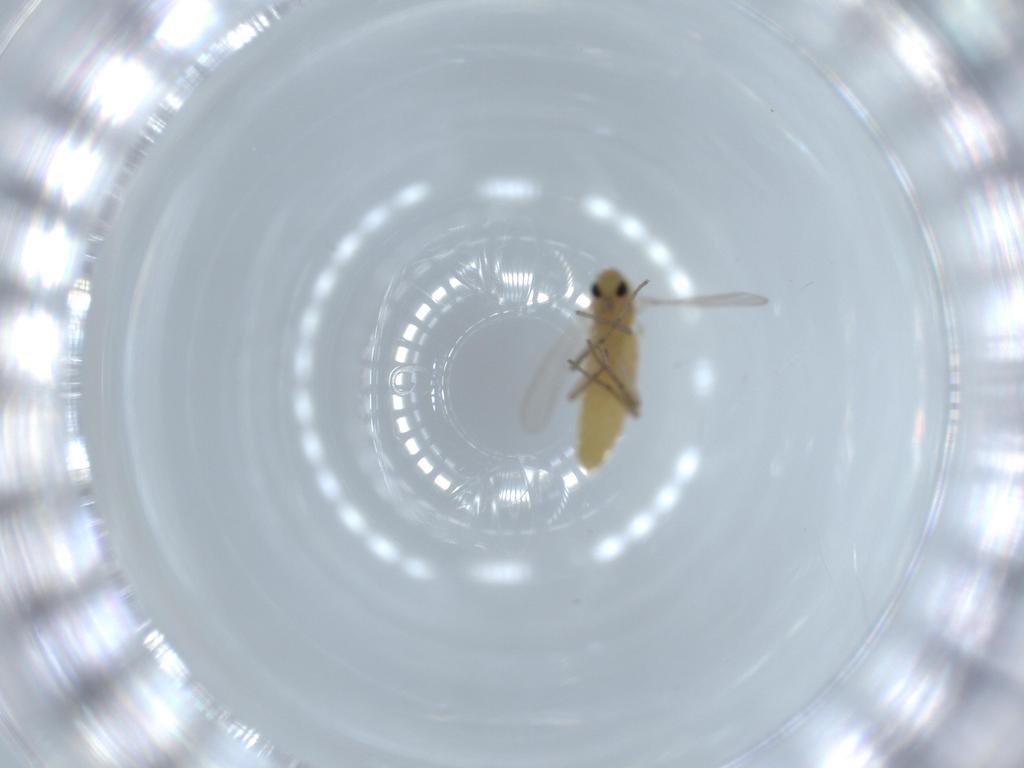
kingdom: Animalia
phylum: Arthropoda
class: Insecta
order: Diptera
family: Chironomidae
